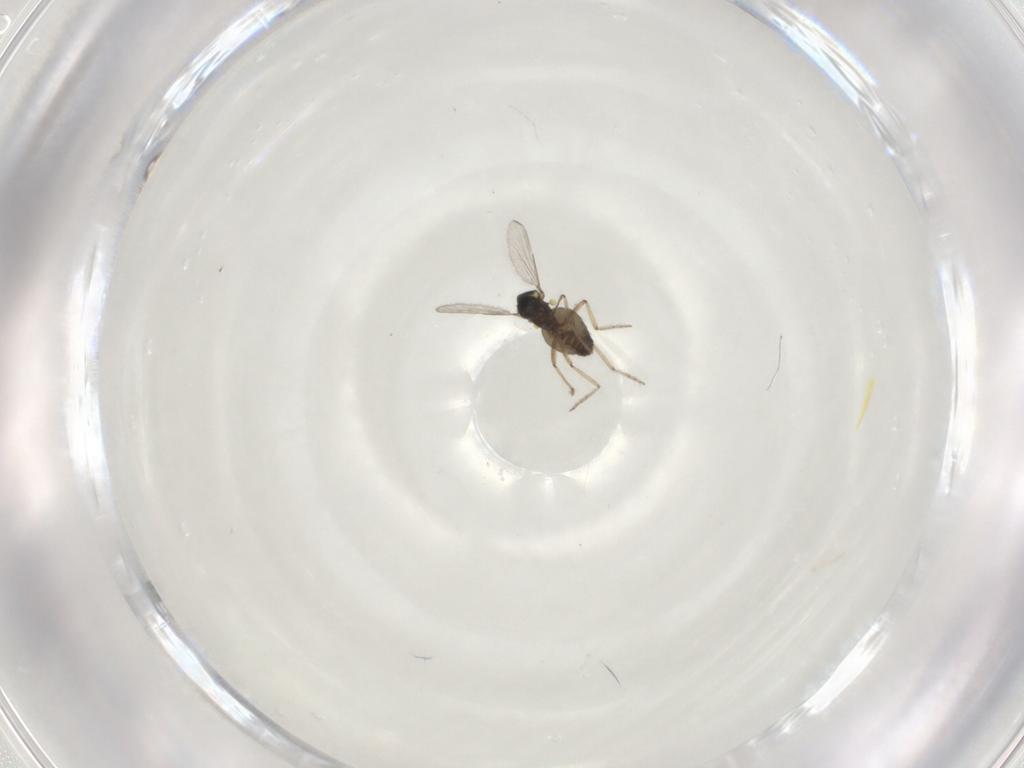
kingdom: Animalia
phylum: Arthropoda
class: Insecta
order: Diptera
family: Ceratopogonidae
